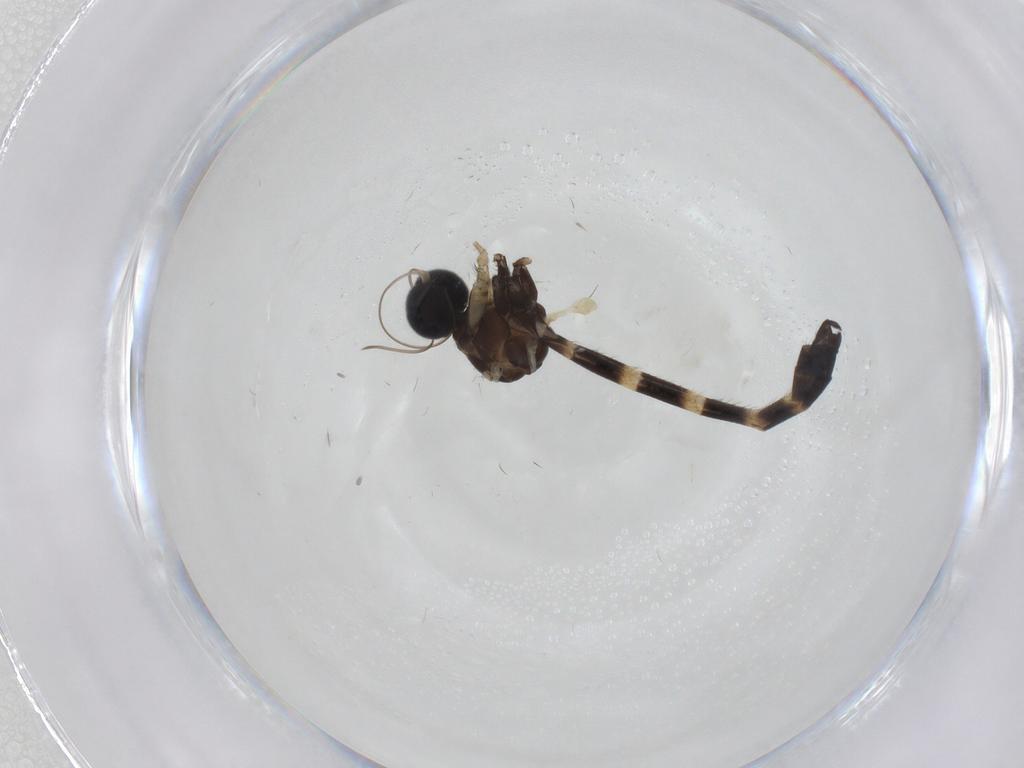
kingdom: Animalia
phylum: Arthropoda
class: Insecta
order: Diptera
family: Keroplatidae
